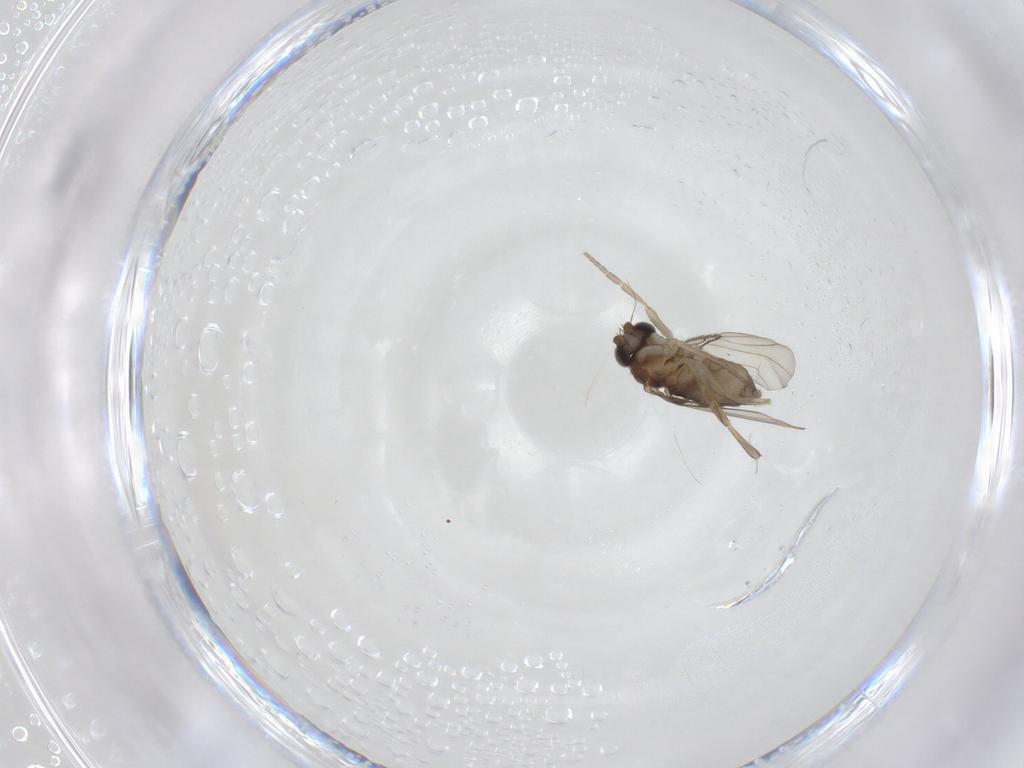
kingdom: Animalia
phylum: Arthropoda
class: Insecta
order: Diptera
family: Phoridae
